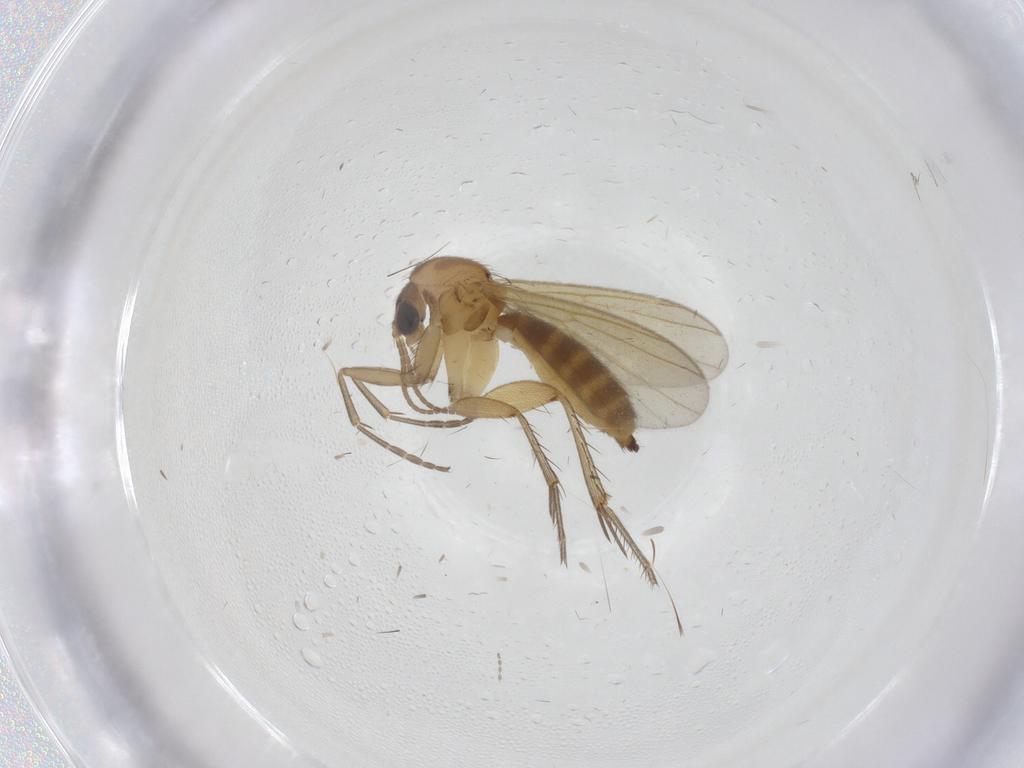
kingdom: Animalia
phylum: Arthropoda
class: Insecta
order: Diptera
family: Mycetophilidae
